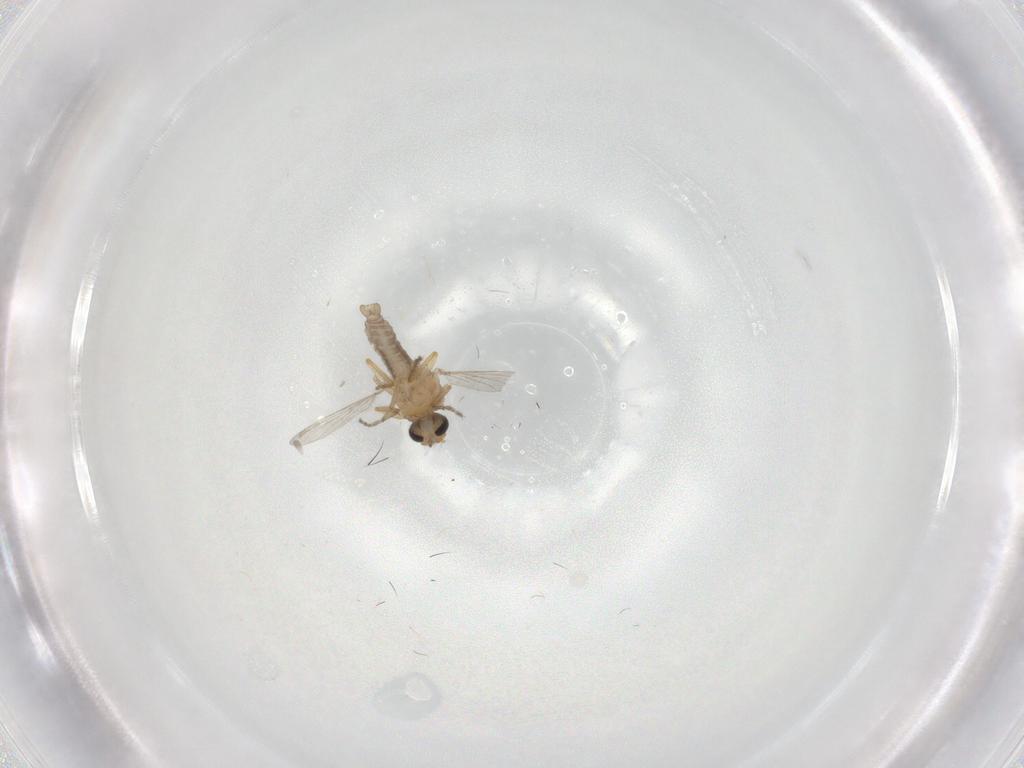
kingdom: Animalia
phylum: Arthropoda
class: Insecta
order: Diptera
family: Ceratopogonidae
